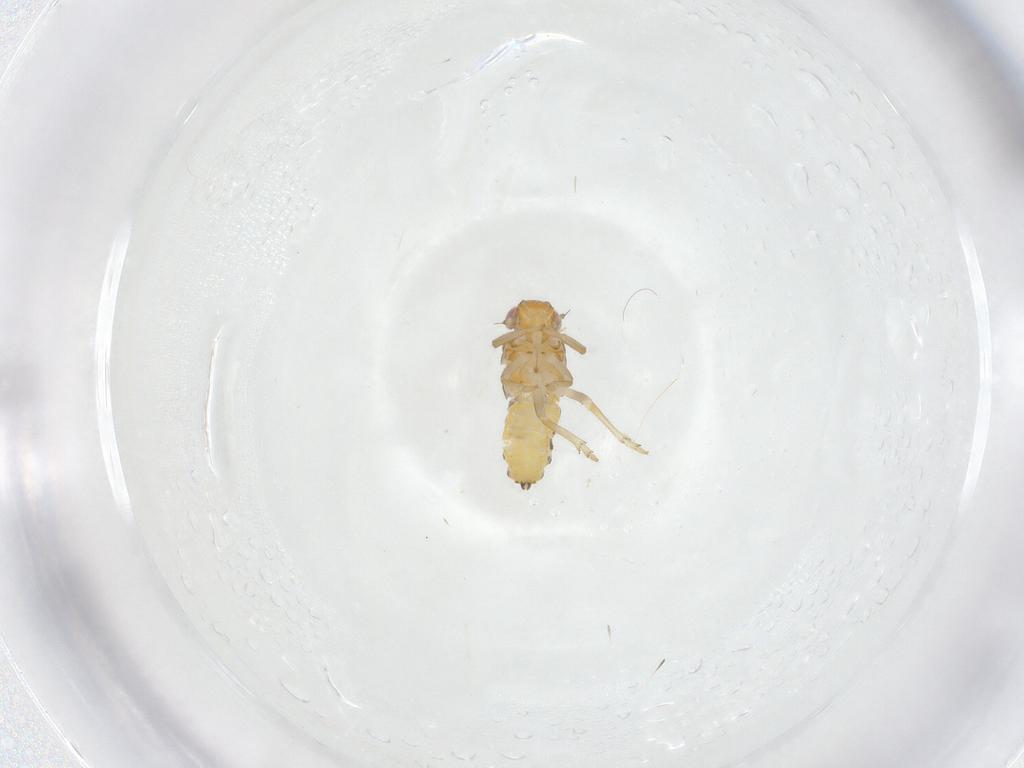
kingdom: Animalia
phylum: Arthropoda
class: Insecta
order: Hemiptera
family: Issidae
